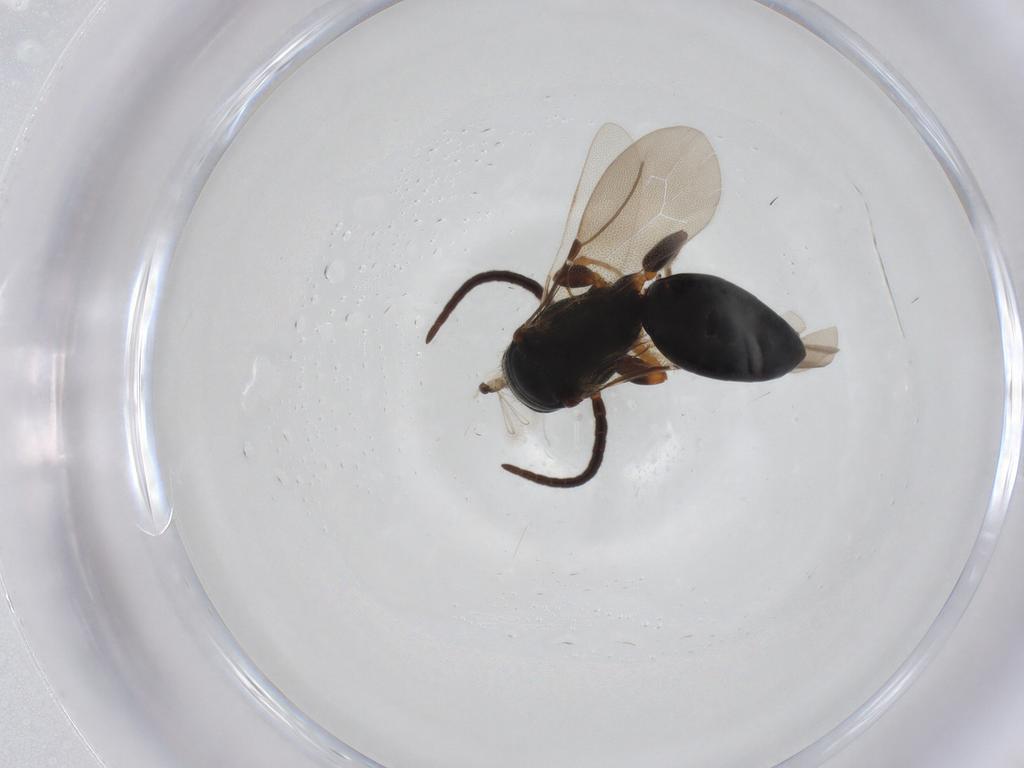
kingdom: Animalia
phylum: Arthropoda
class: Insecta
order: Hymenoptera
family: Bethylidae
